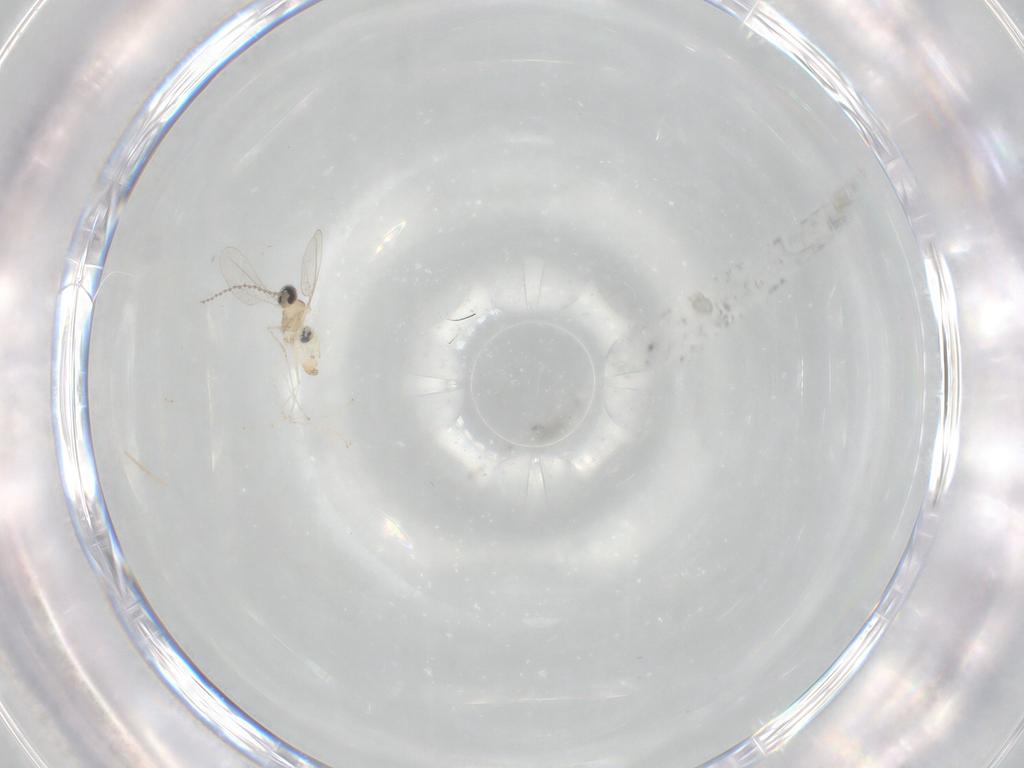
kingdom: Animalia
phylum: Arthropoda
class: Insecta
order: Diptera
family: Cecidomyiidae
